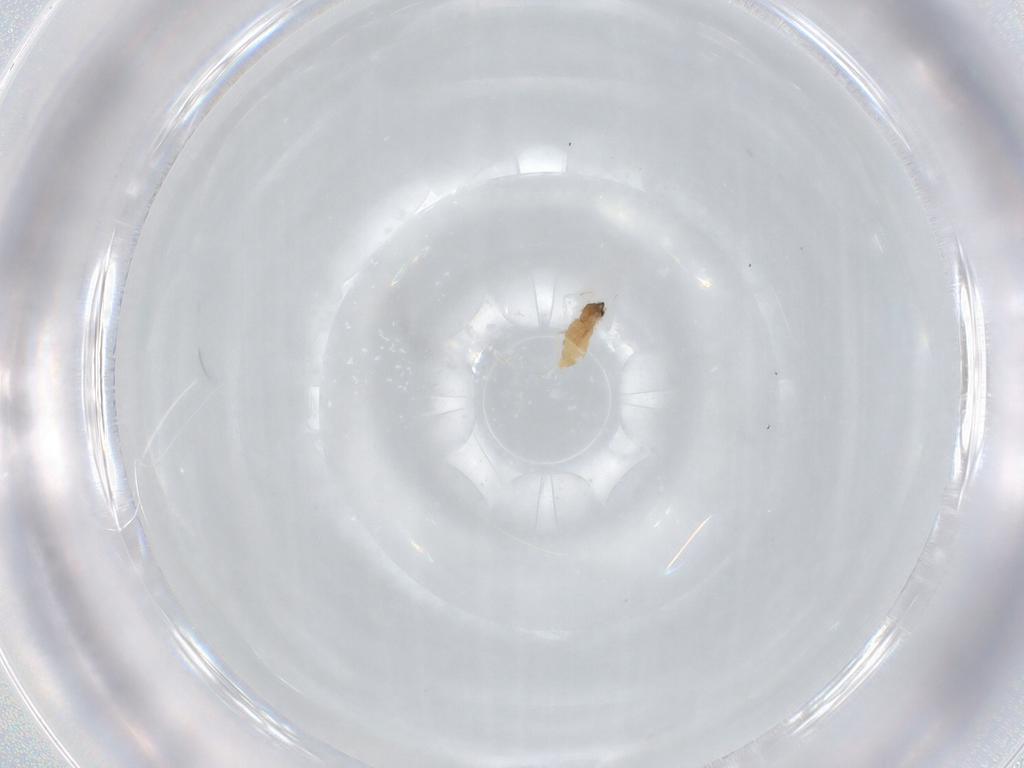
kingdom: Animalia
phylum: Arthropoda
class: Insecta
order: Diptera
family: Cecidomyiidae
